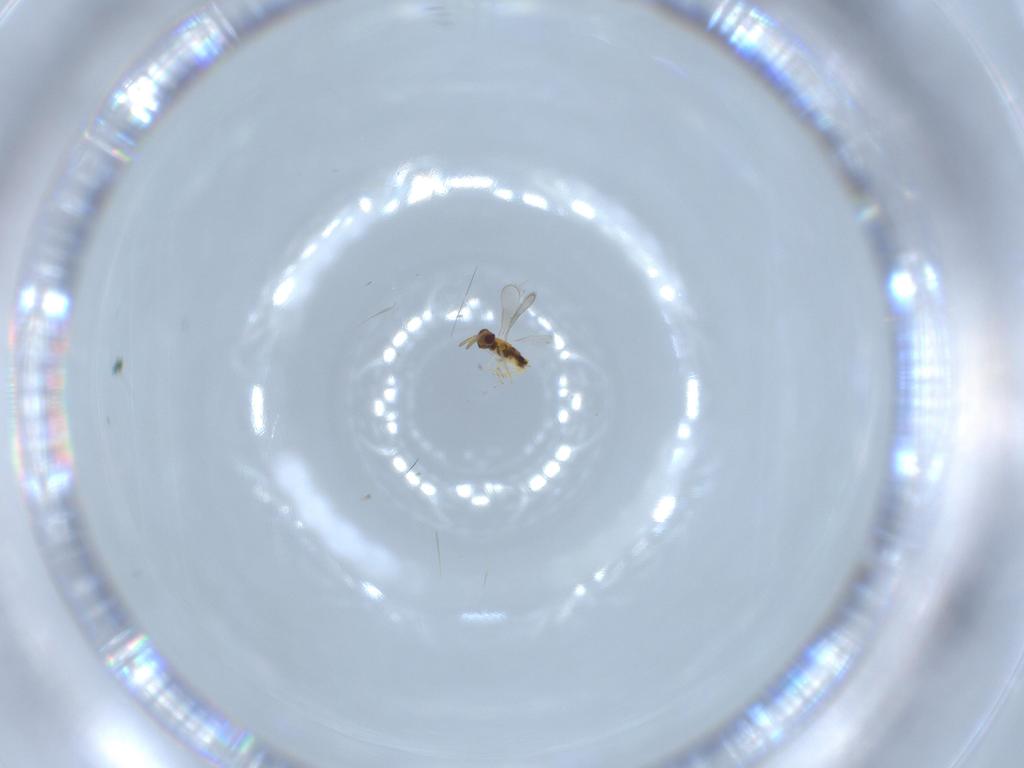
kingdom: Animalia
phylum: Arthropoda
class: Insecta
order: Hymenoptera
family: Aphelinidae
